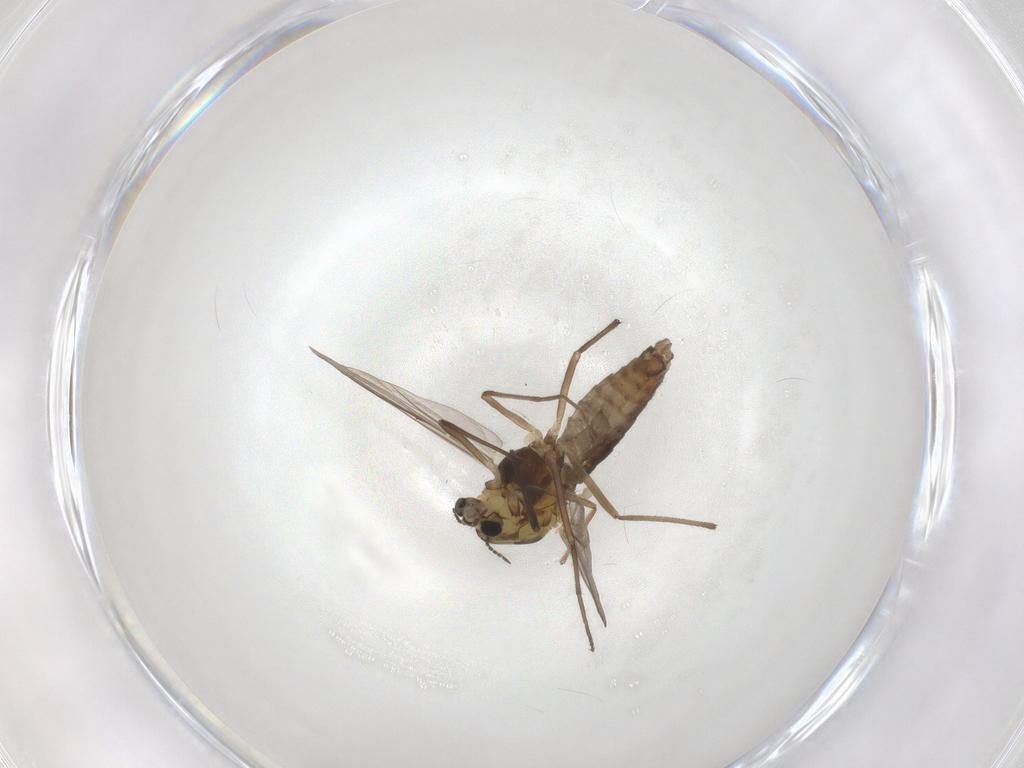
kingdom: Animalia
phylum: Arthropoda
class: Insecta
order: Diptera
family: Chironomidae
